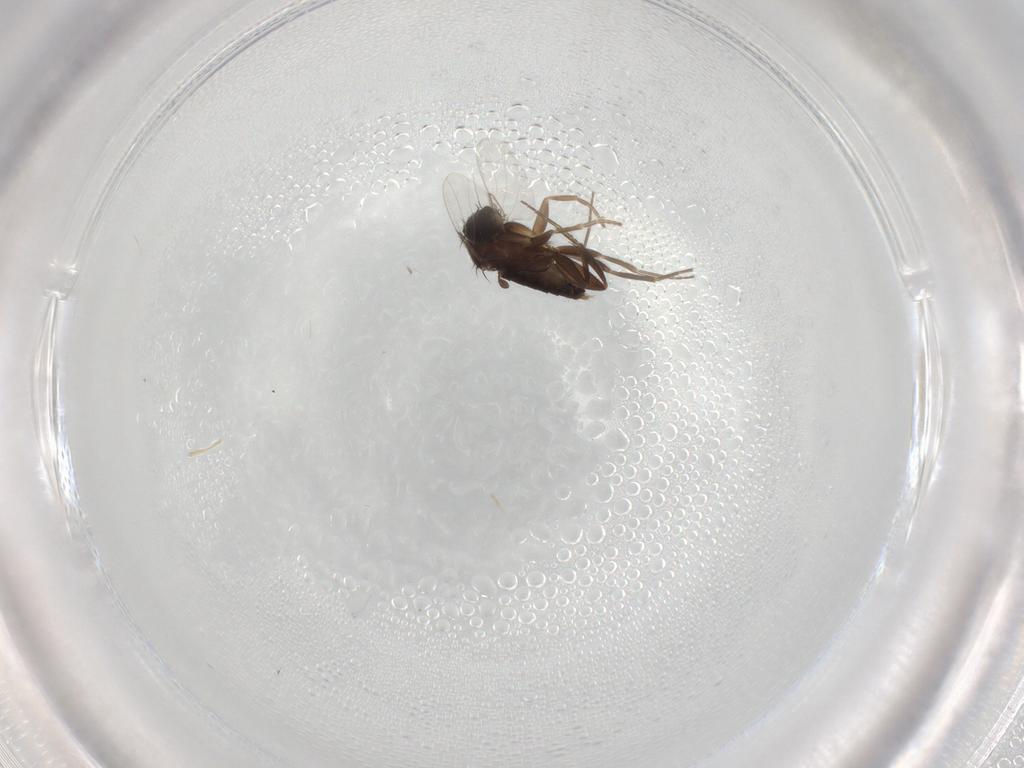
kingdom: Animalia
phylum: Arthropoda
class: Insecta
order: Diptera
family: Phoridae
